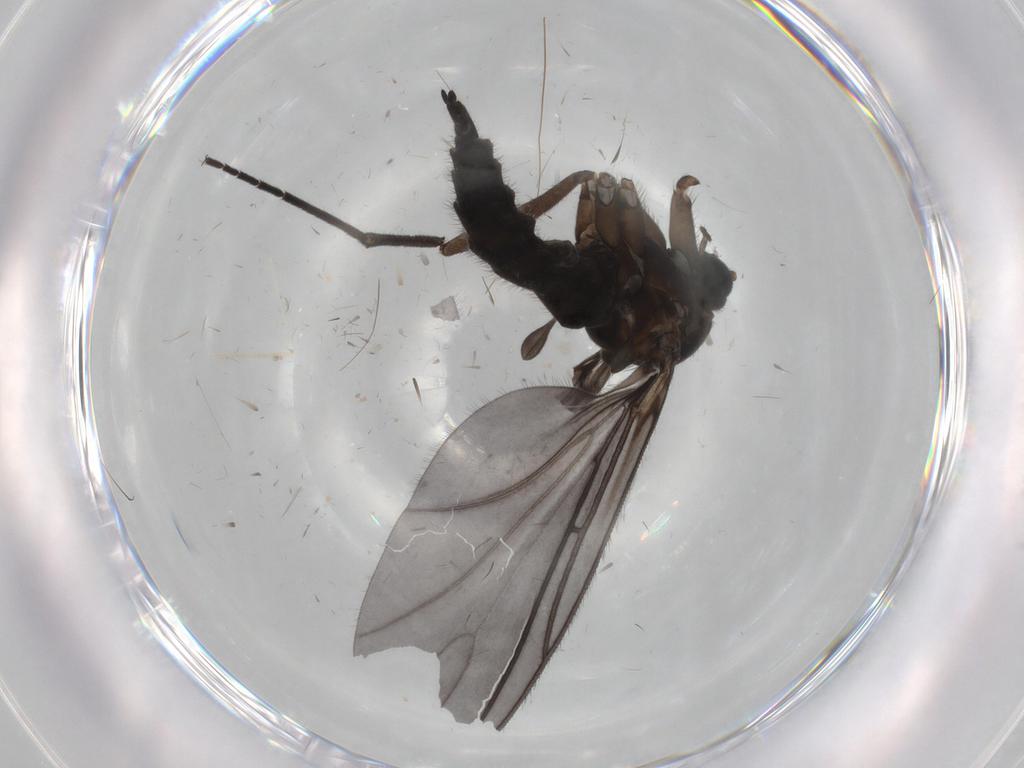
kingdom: Animalia
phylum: Arthropoda
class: Insecta
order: Diptera
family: Sciaridae
